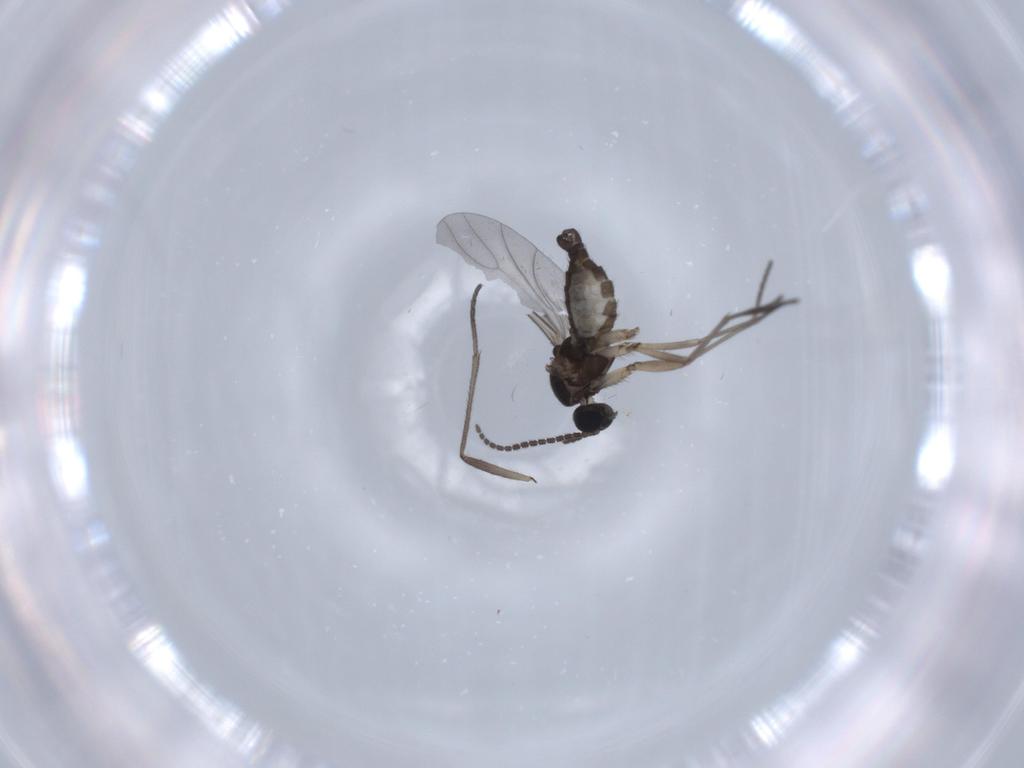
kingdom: Animalia
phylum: Arthropoda
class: Insecta
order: Diptera
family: Sciaridae
